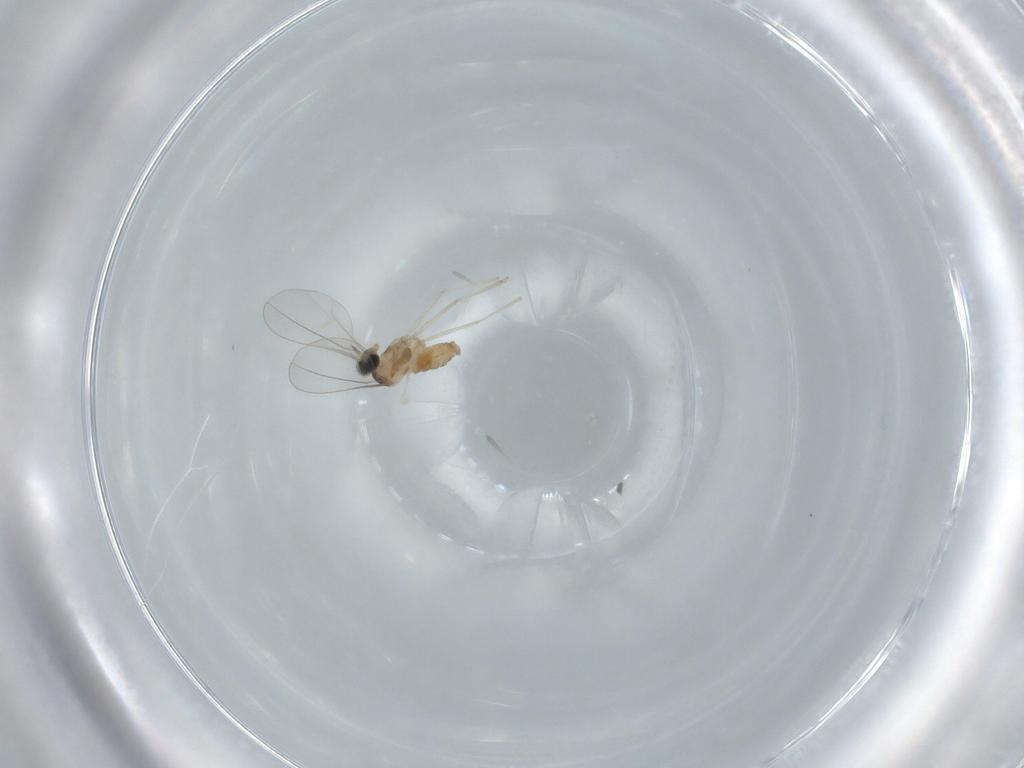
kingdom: Animalia
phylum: Arthropoda
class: Insecta
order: Diptera
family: Cecidomyiidae
